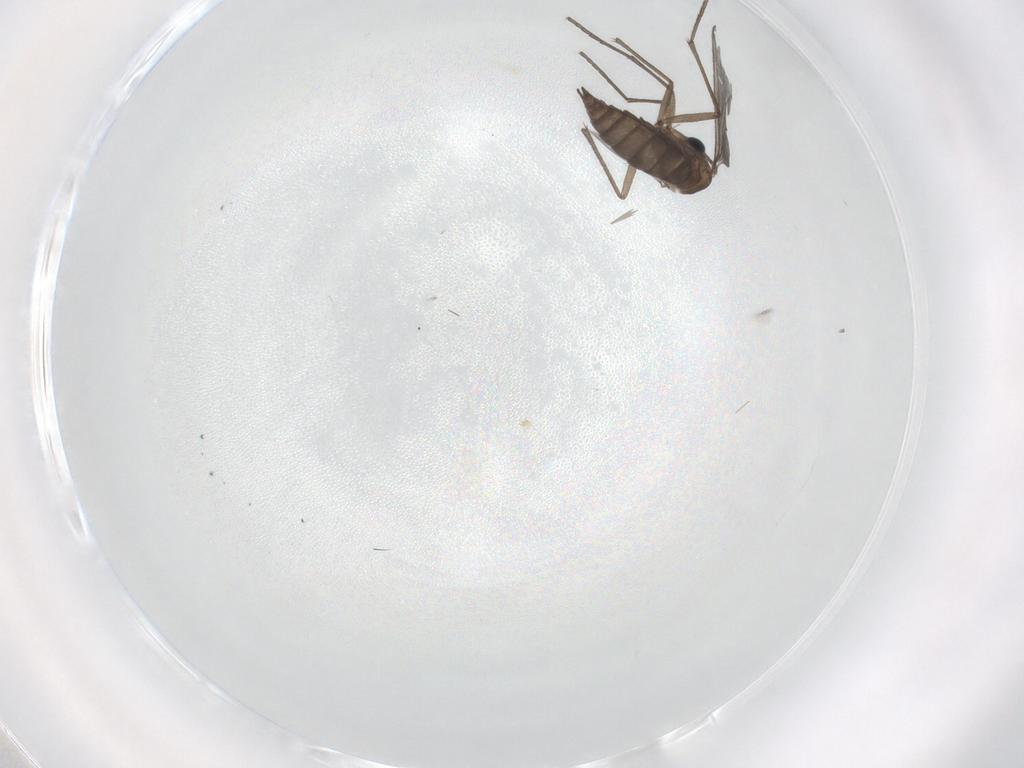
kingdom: Animalia
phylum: Arthropoda
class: Insecta
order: Diptera
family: Sciaridae
